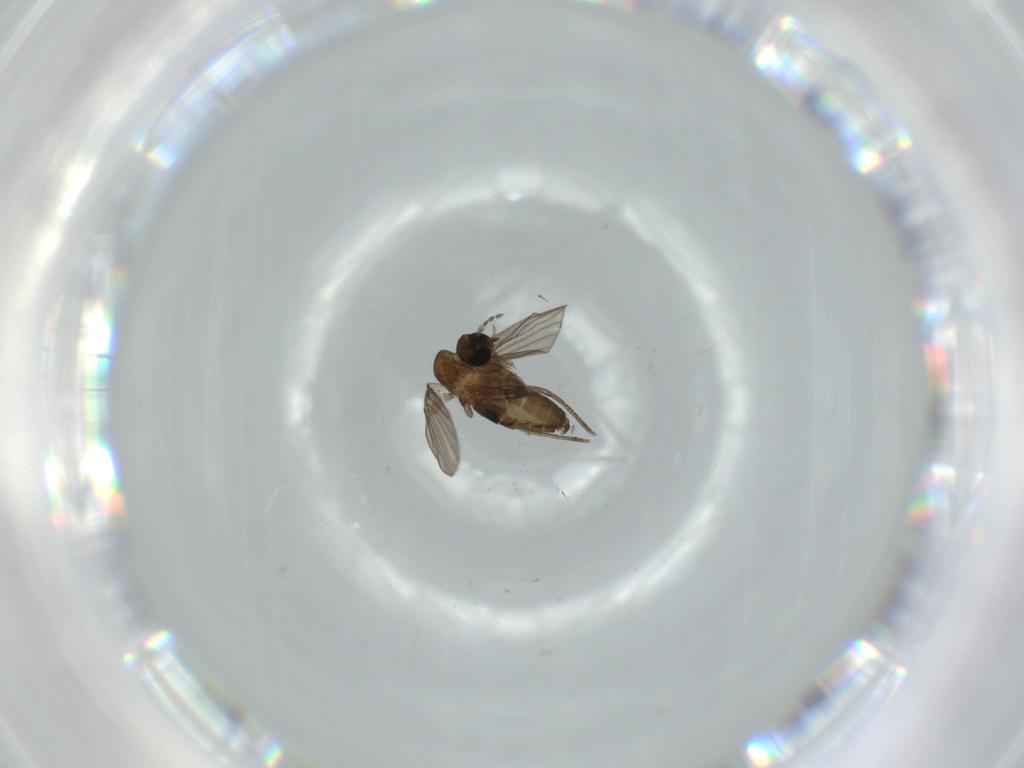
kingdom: Animalia
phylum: Arthropoda
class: Insecta
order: Diptera
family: Psychodidae
